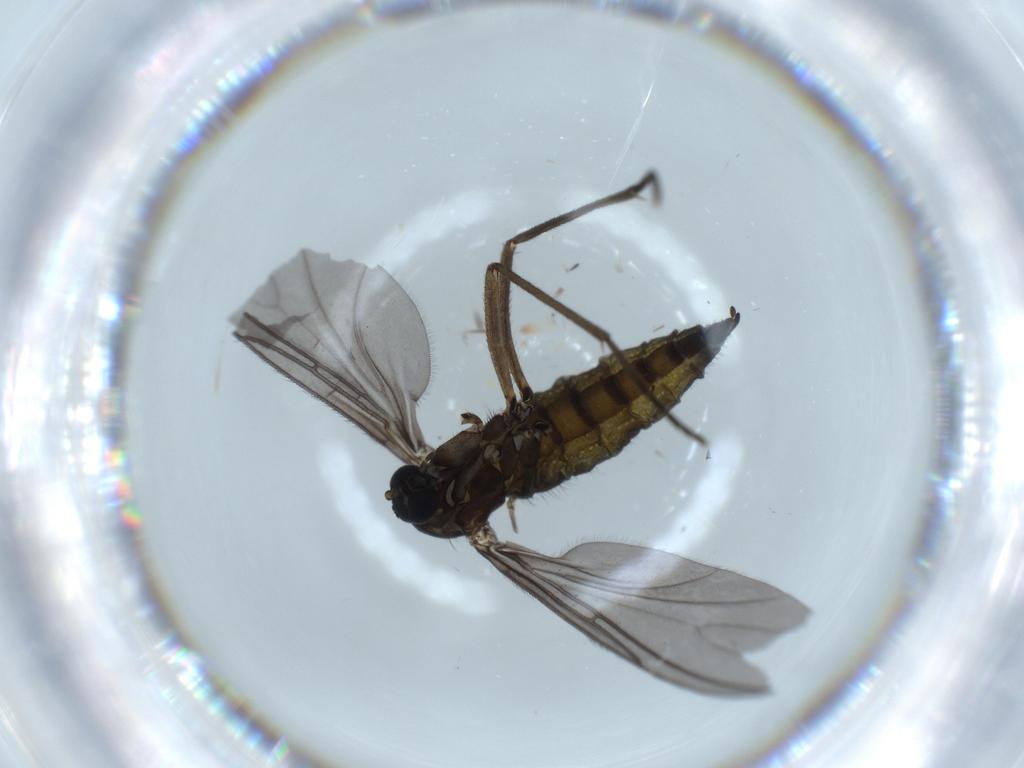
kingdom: Animalia
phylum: Arthropoda
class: Insecta
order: Diptera
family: Sciaridae
